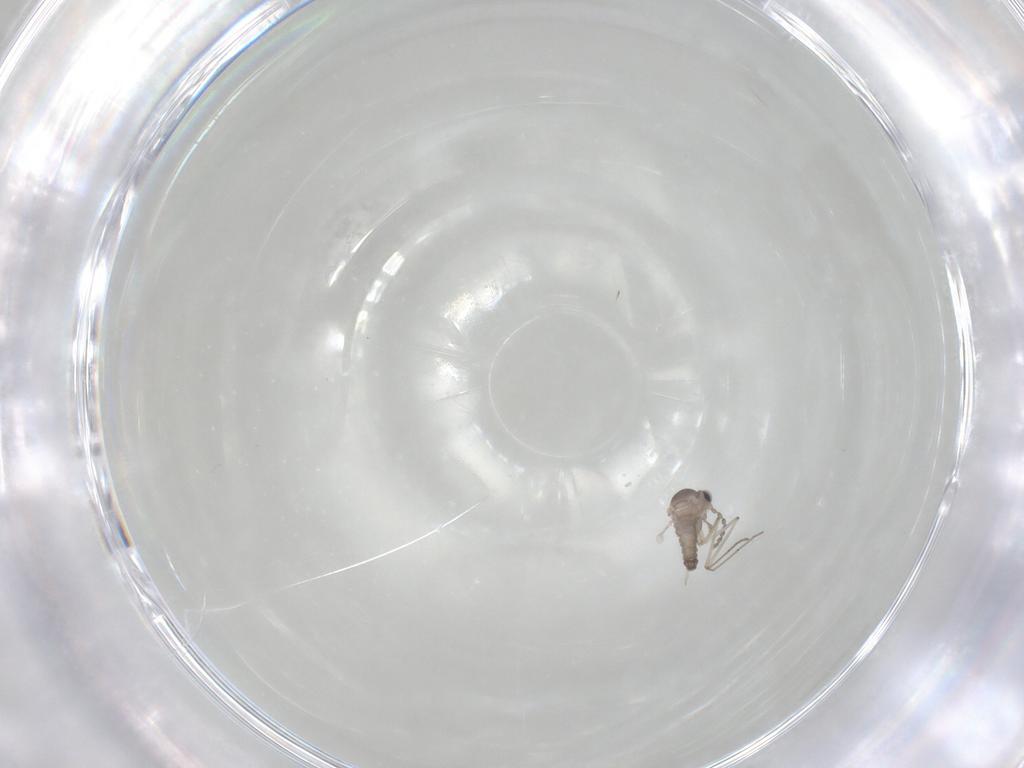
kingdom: Animalia
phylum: Arthropoda
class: Insecta
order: Diptera
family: Cecidomyiidae
